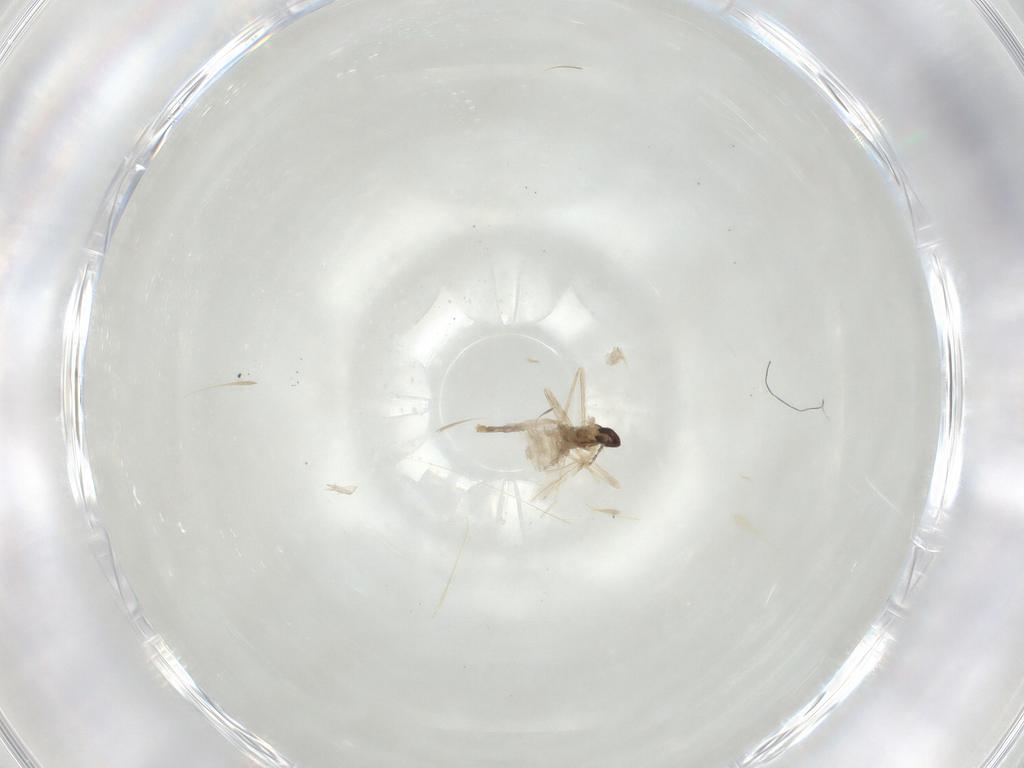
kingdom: Animalia
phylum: Arthropoda
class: Insecta
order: Diptera
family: Cecidomyiidae
